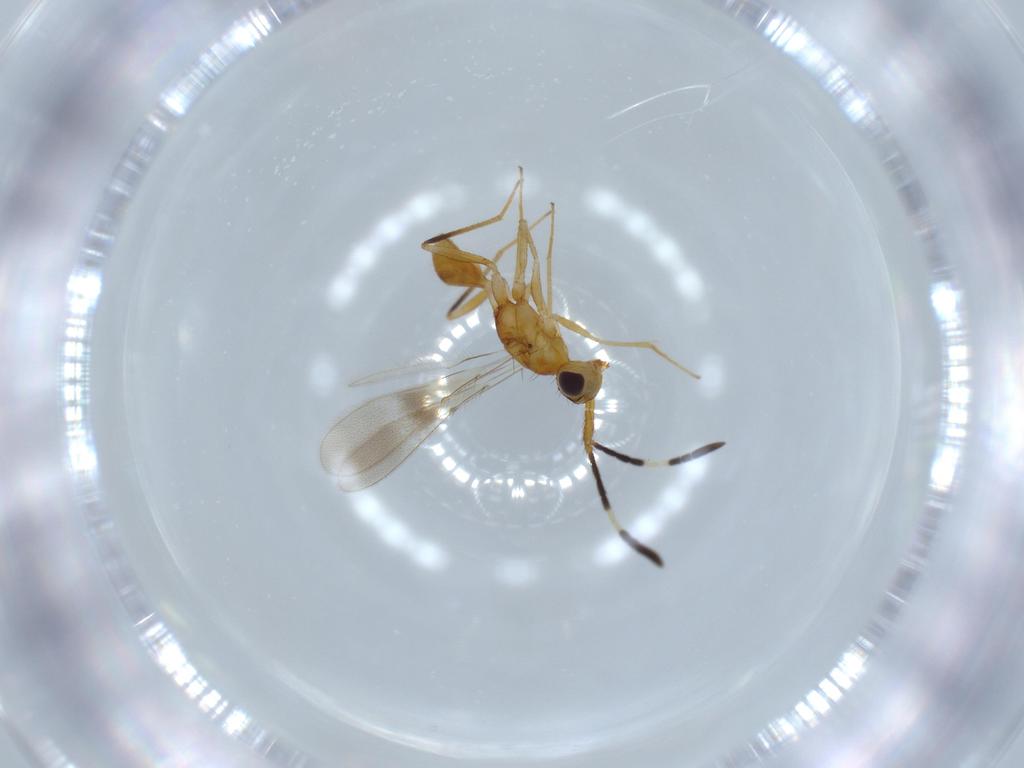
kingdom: Animalia
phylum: Arthropoda
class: Insecta
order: Hymenoptera
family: Mymaridae
